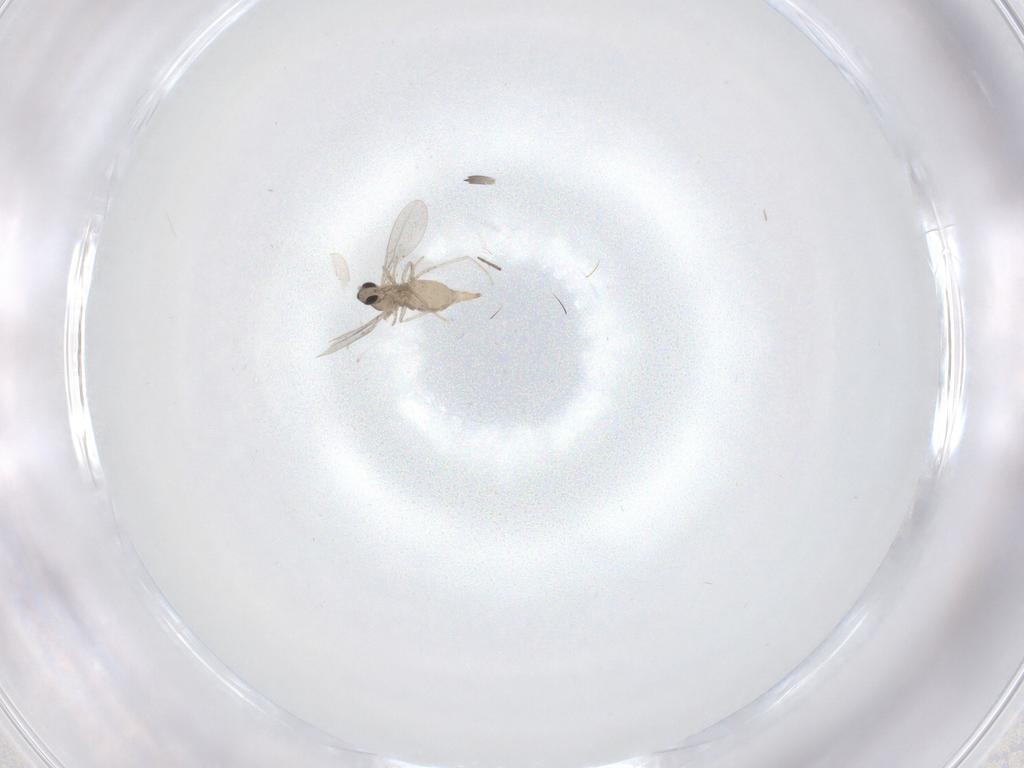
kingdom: Animalia
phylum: Arthropoda
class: Insecta
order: Diptera
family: Cecidomyiidae
